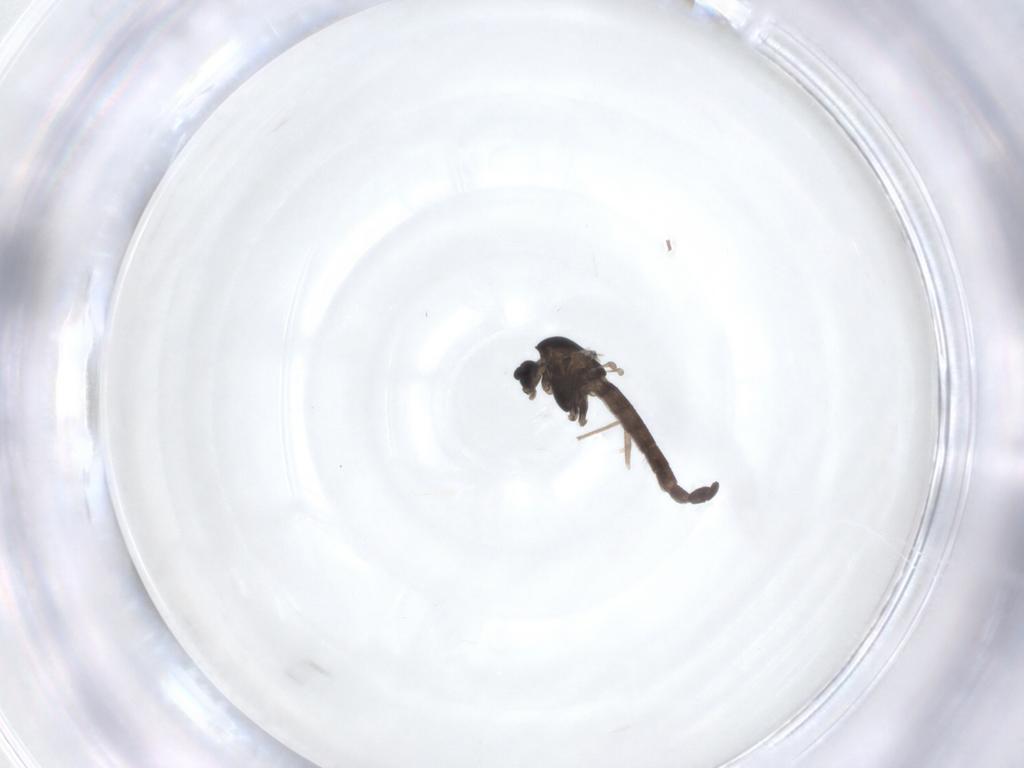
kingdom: Animalia
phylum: Arthropoda
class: Insecta
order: Diptera
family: Chironomidae
